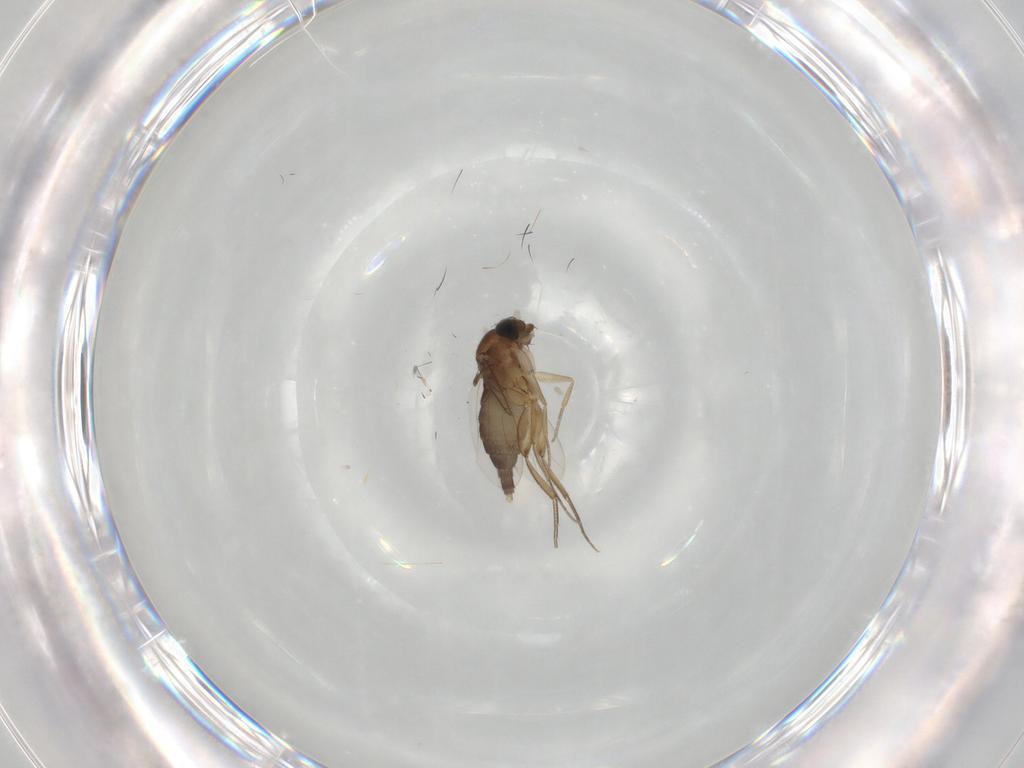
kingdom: Animalia
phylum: Arthropoda
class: Insecta
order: Diptera
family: Phoridae
